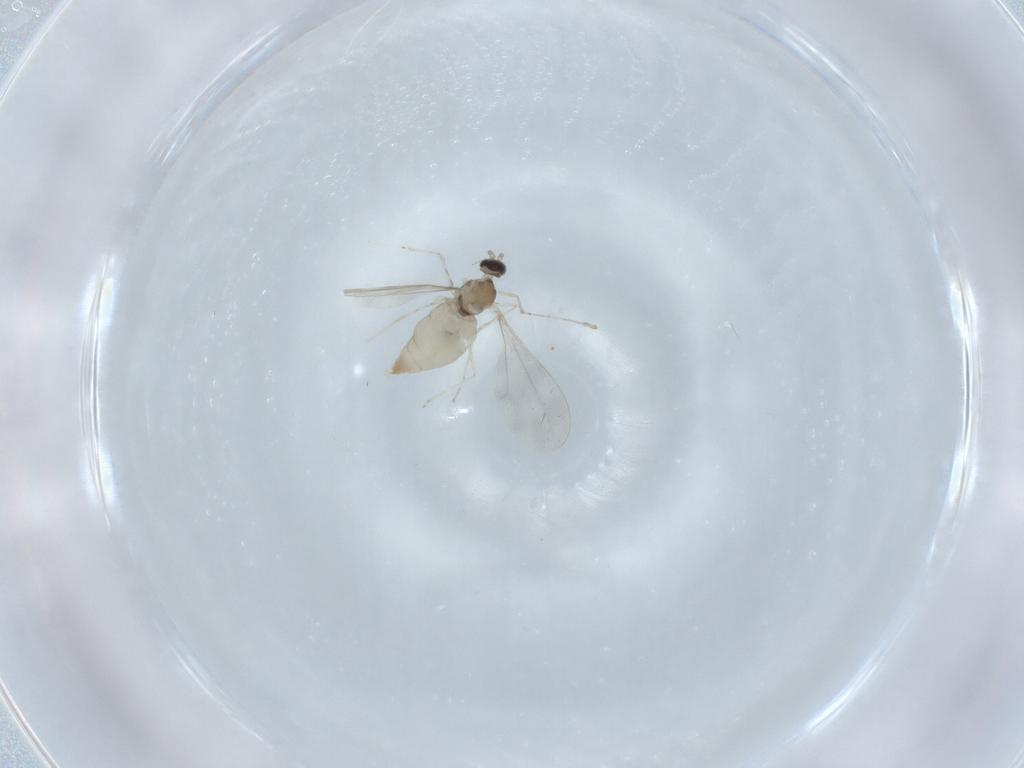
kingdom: Animalia
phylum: Arthropoda
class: Insecta
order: Diptera
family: Cecidomyiidae
